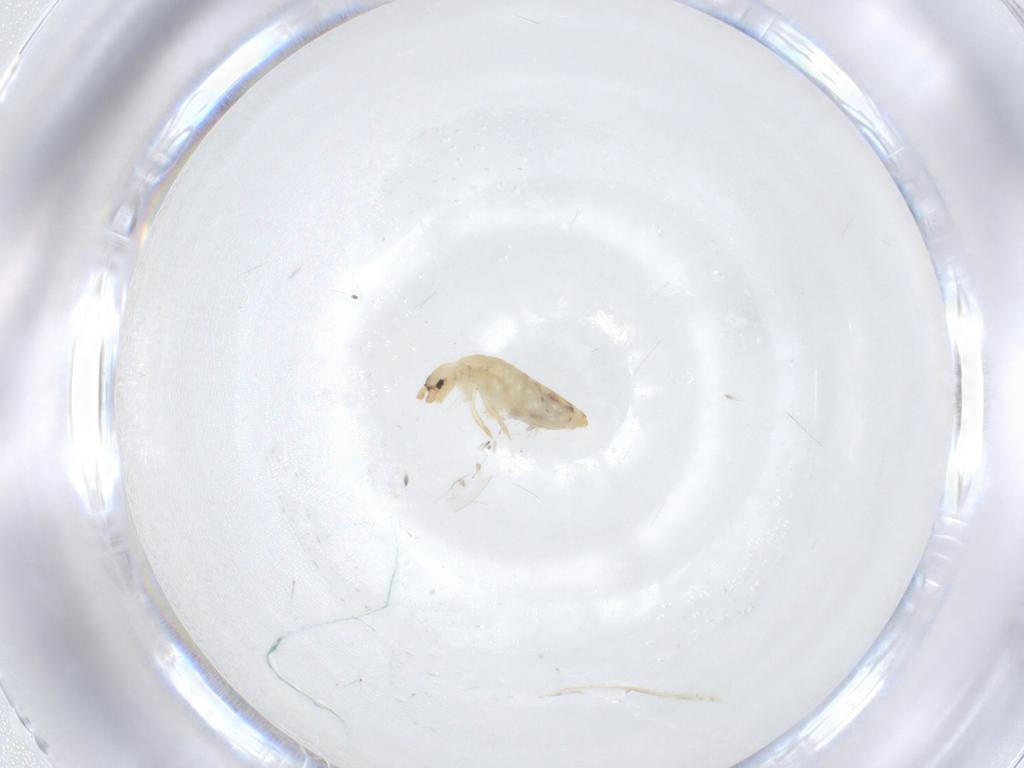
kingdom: Animalia
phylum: Arthropoda
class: Collembola
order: Entomobryomorpha
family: Entomobryidae
